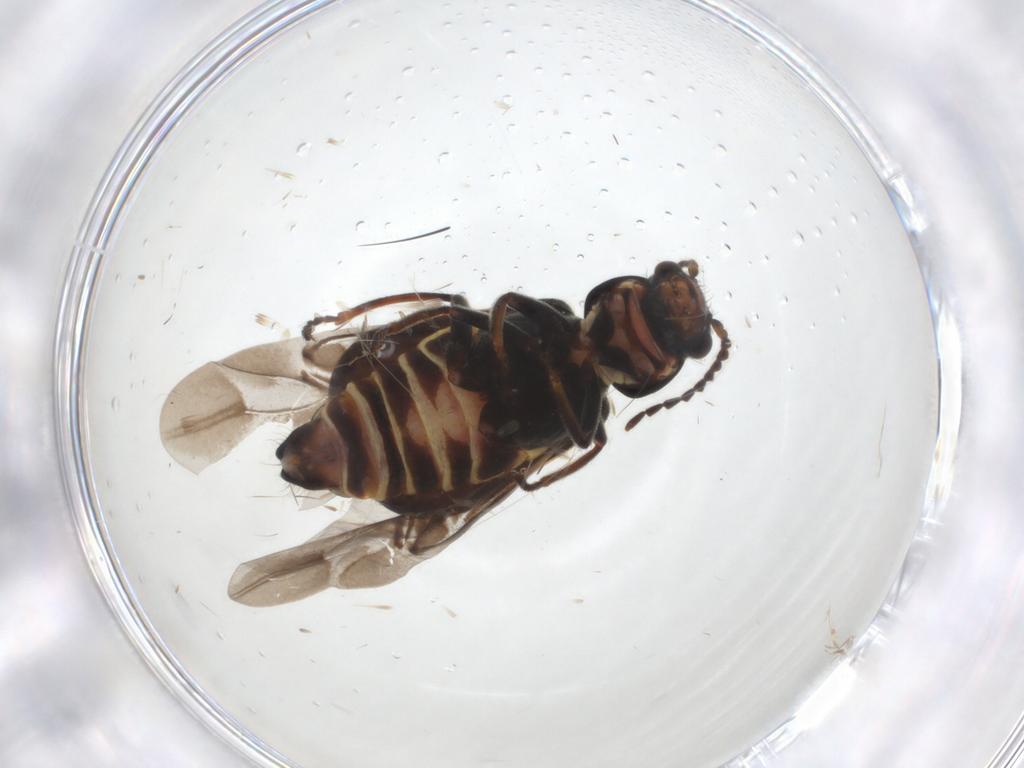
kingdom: Animalia
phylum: Arthropoda
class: Insecta
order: Coleoptera
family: Melyridae
